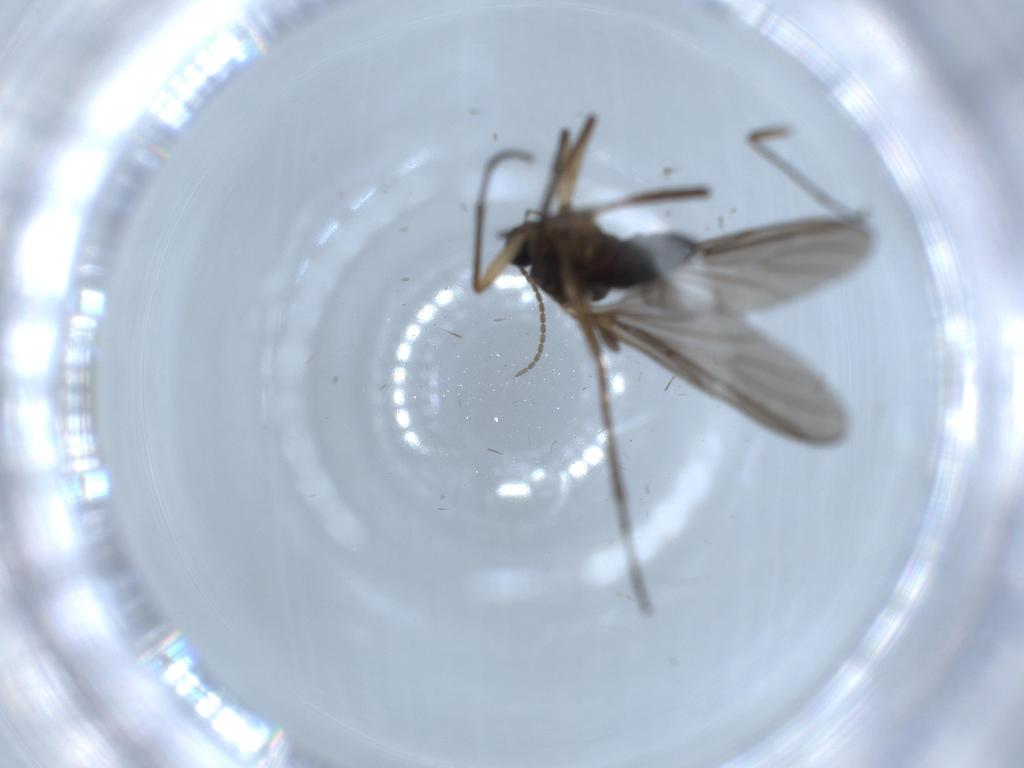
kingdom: Animalia
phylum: Arthropoda
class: Insecta
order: Diptera
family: Sciaridae
